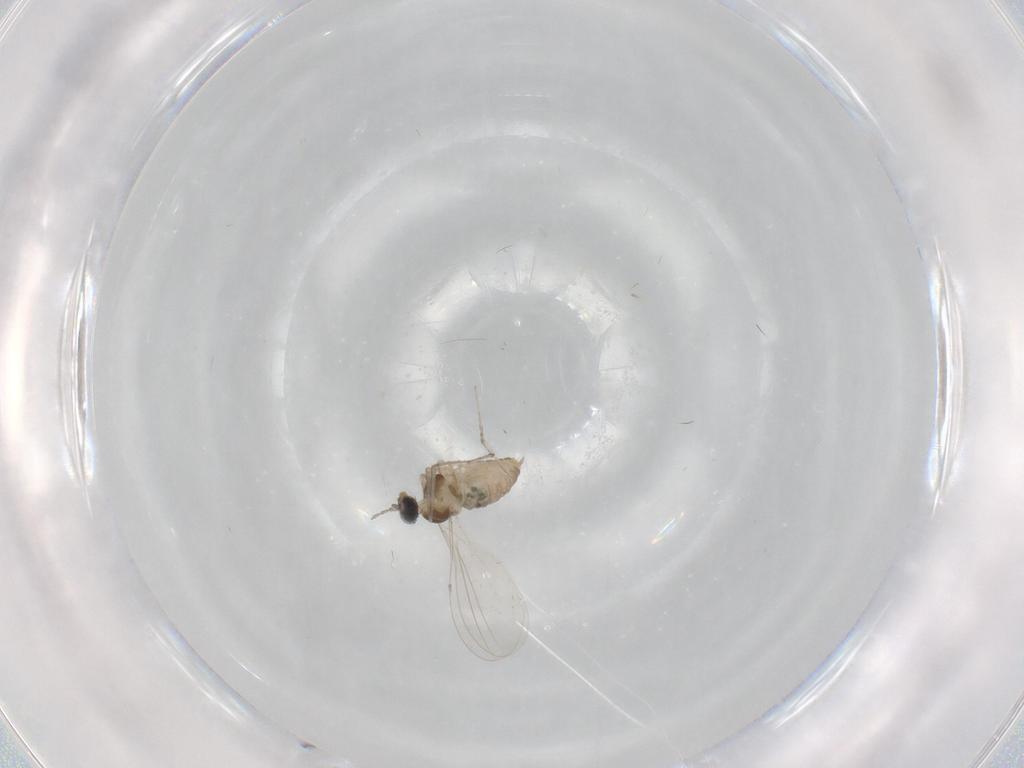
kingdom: Animalia
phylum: Arthropoda
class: Insecta
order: Diptera
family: Cecidomyiidae
